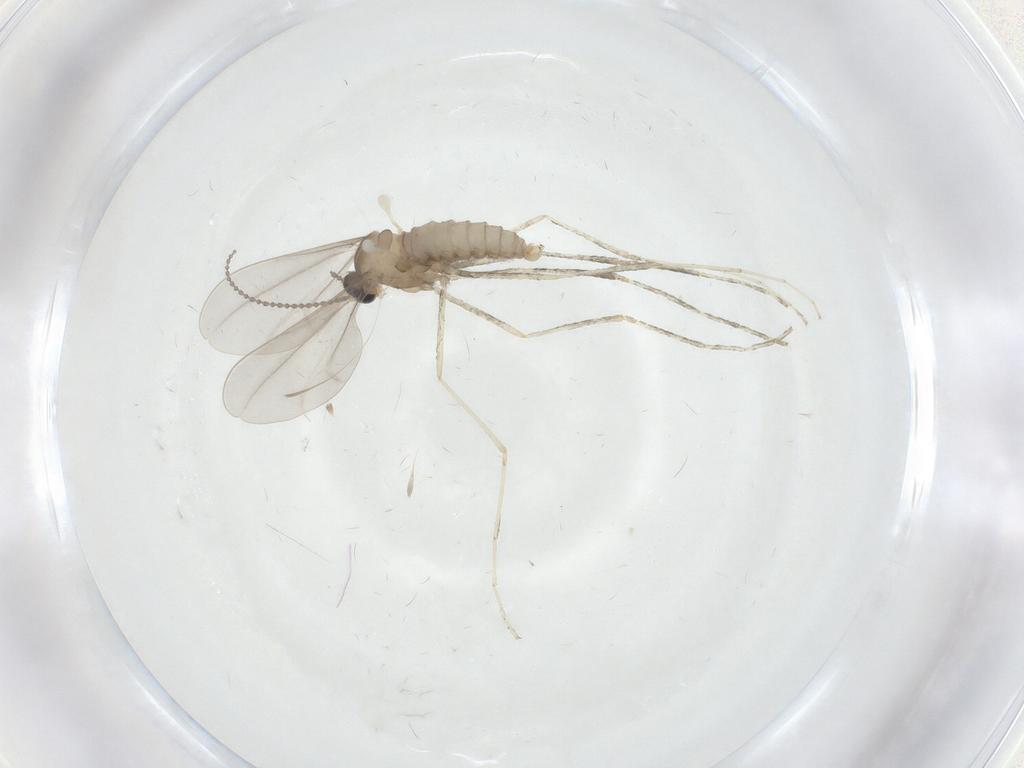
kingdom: Animalia
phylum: Arthropoda
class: Insecta
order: Diptera
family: Cecidomyiidae
